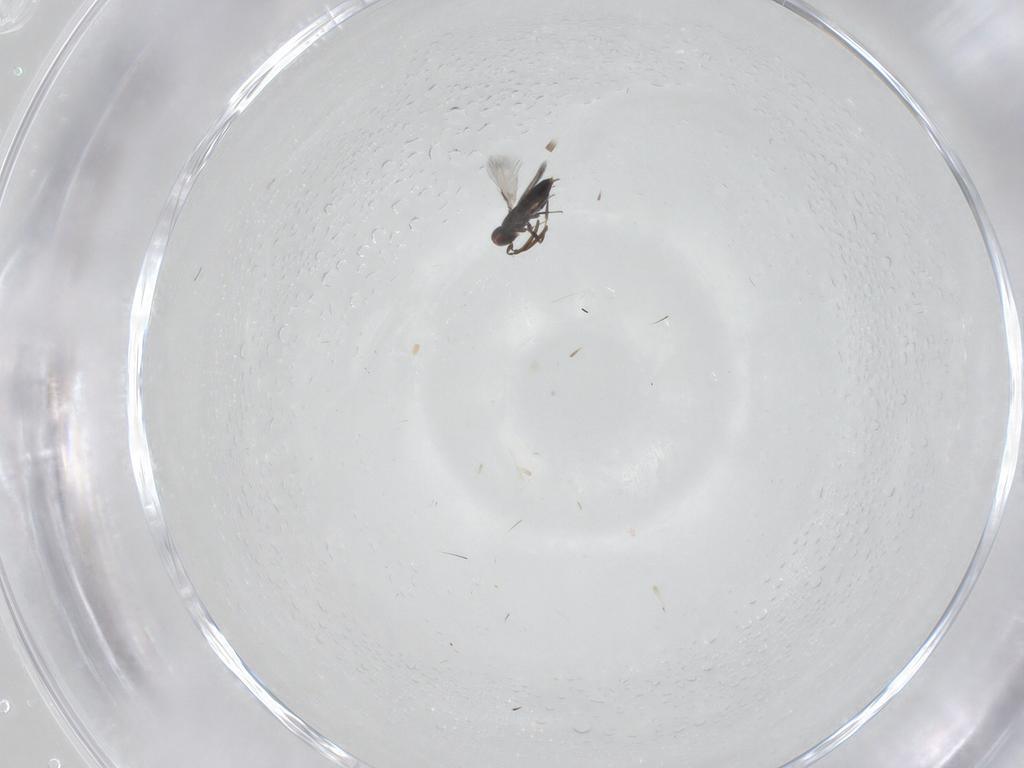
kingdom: Animalia
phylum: Arthropoda
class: Insecta
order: Hymenoptera
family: Signiphoridae
